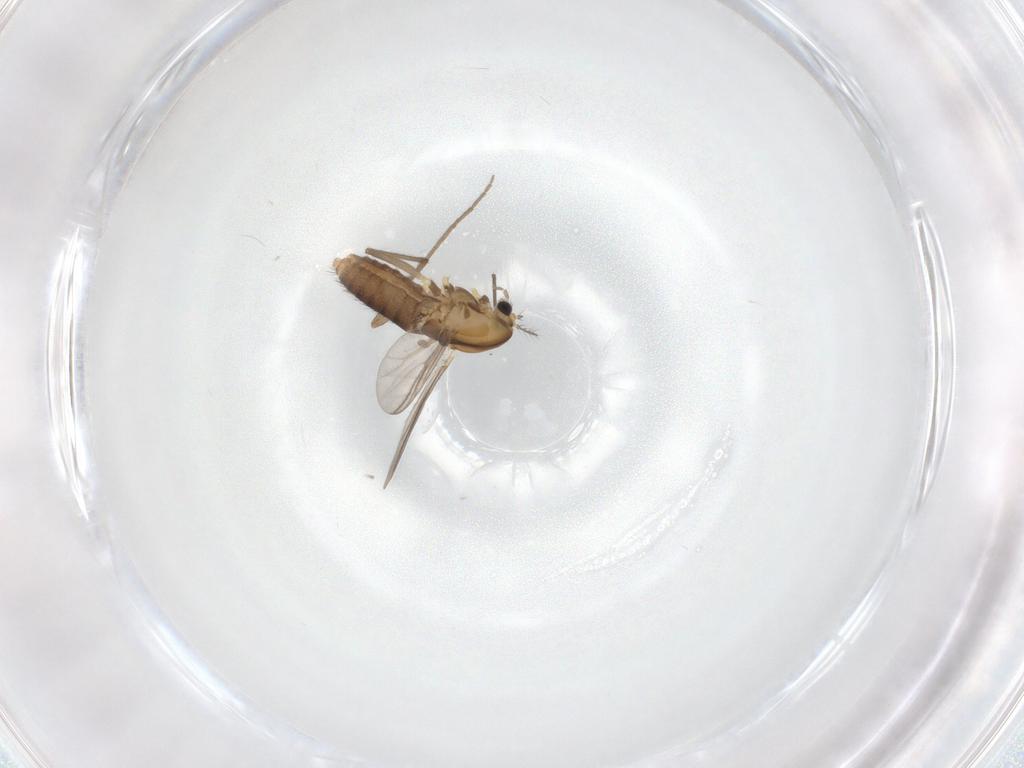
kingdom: Animalia
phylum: Arthropoda
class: Insecta
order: Diptera
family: Chironomidae
